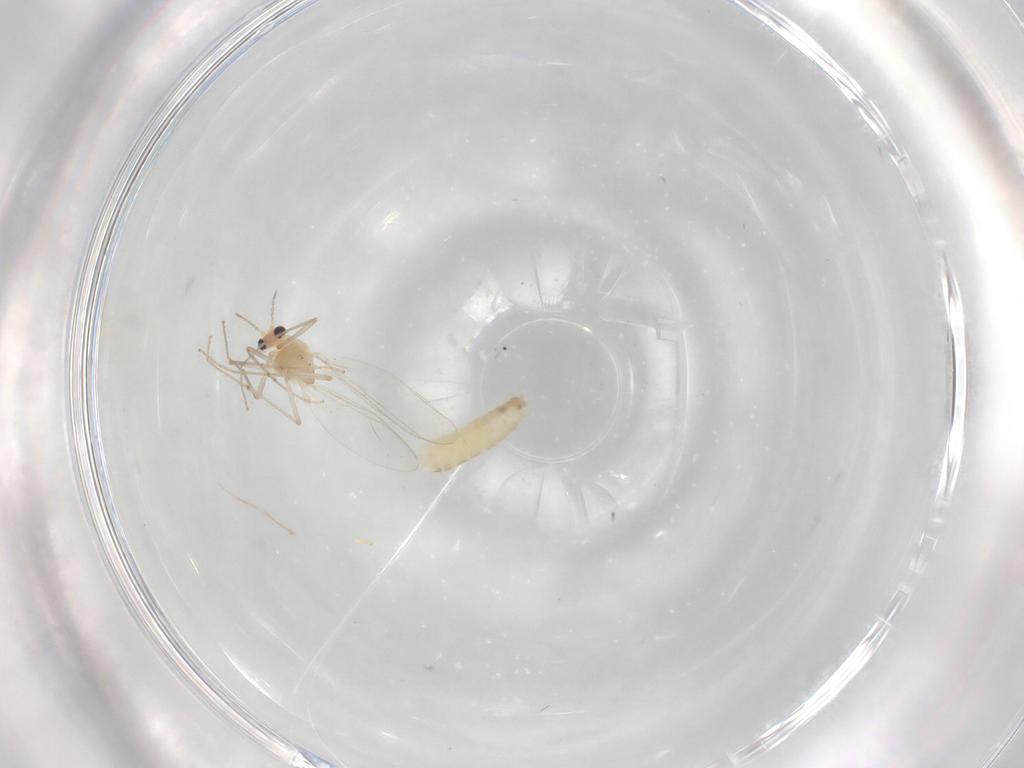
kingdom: Animalia
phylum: Arthropoda
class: Insecta
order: Diptera
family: Chironomidae
